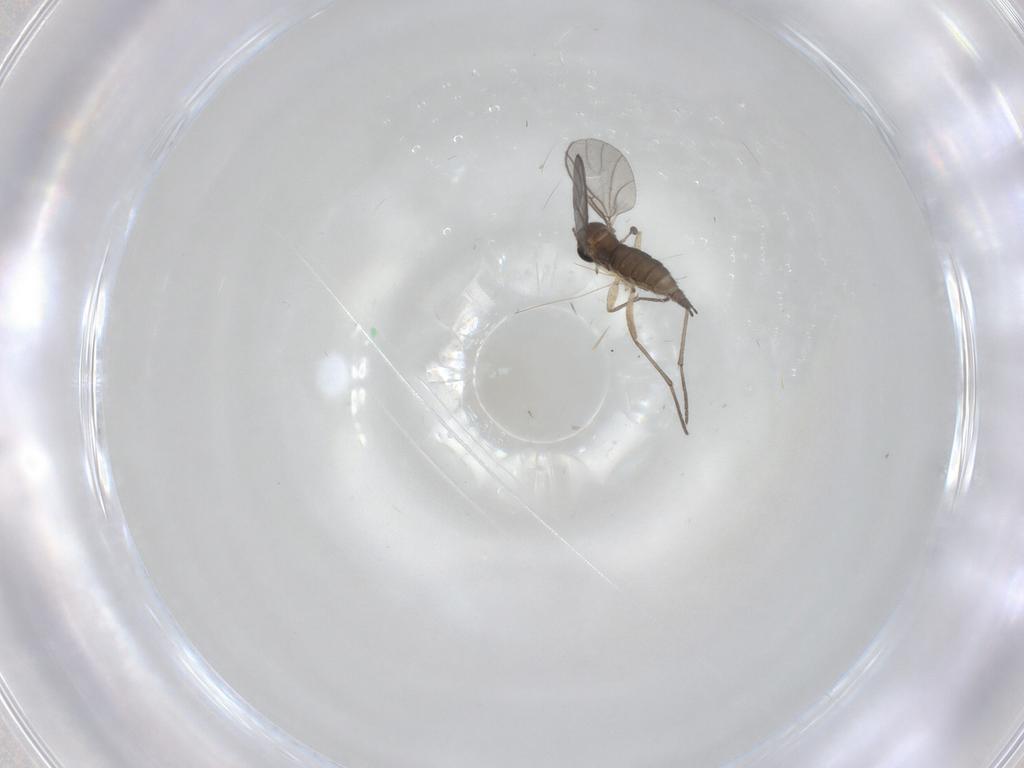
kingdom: Animalia
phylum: Arthropoda
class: Insecta
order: Diptera
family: Sciaridae
